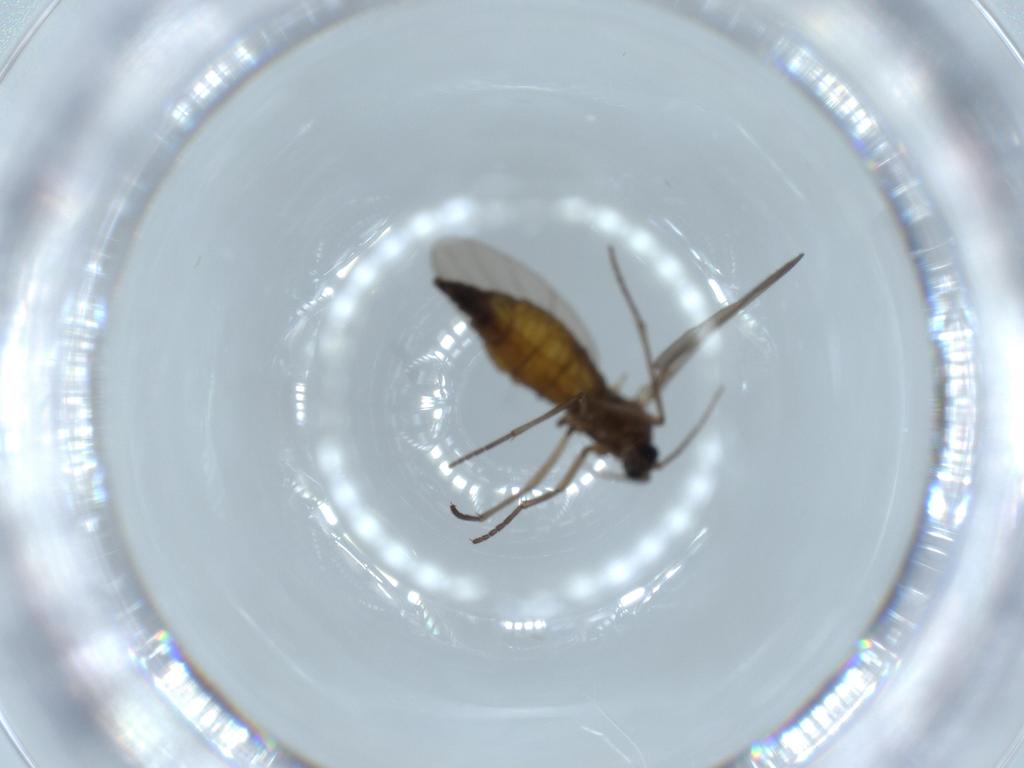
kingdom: Animalia
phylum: Arthropoda
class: Insecta
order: Diptera
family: Sciaridae
